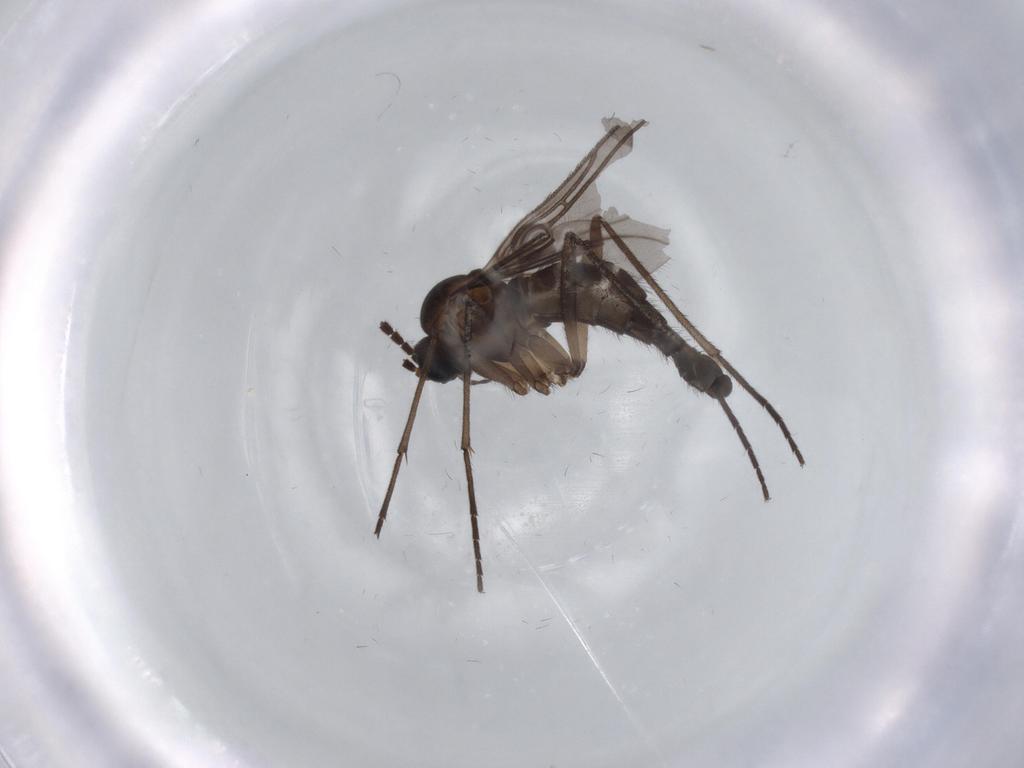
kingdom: Animalia
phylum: Arthropoda
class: Insecta
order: Diptera
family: Sciaridae
